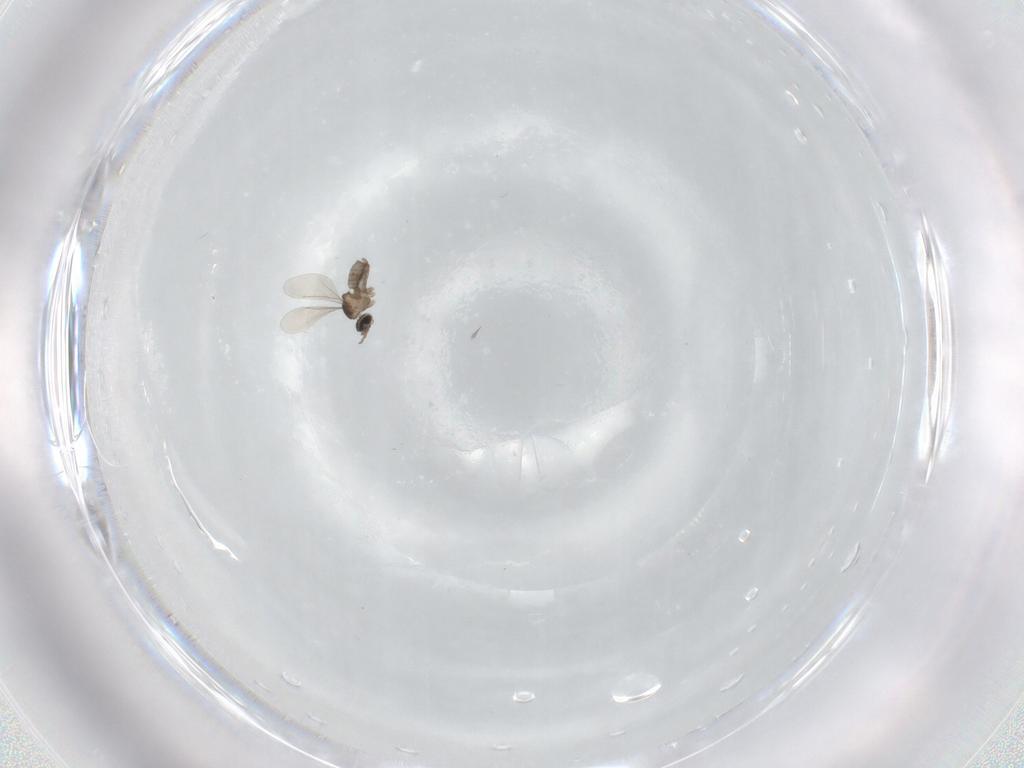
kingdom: Animalia
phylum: Arthropoda
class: Insecta
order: Diptera
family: Cecidomyiidae
